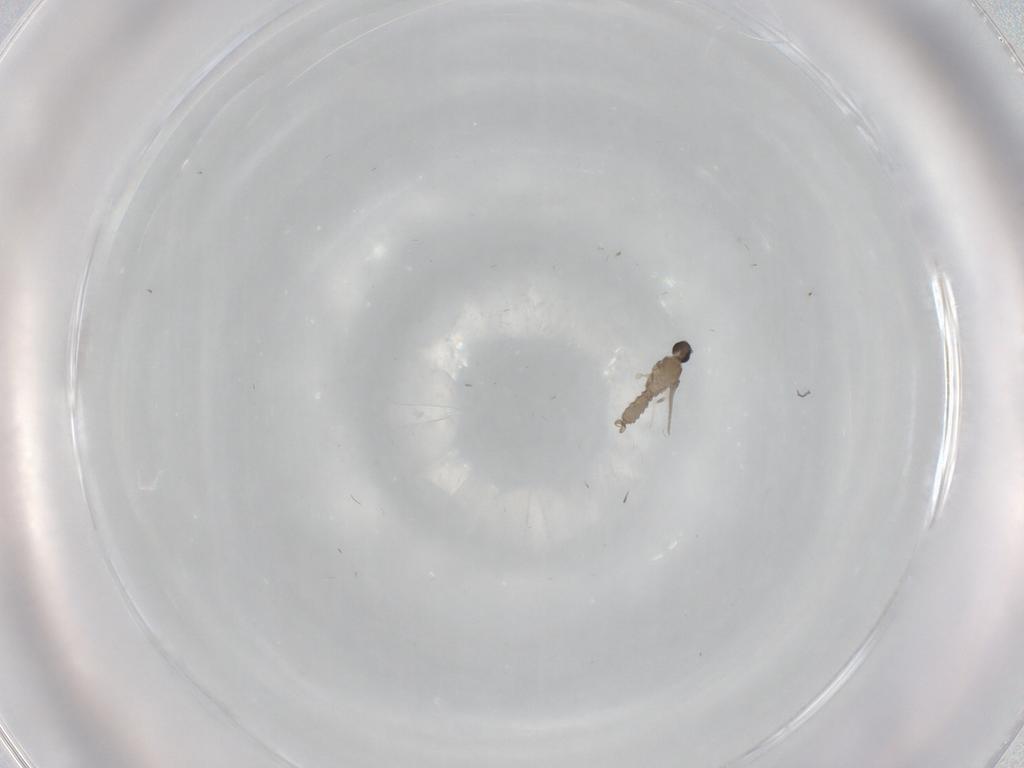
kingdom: Animalia
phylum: Arthropoda
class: Insecta
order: Diptera
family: Cecidomyiidae
